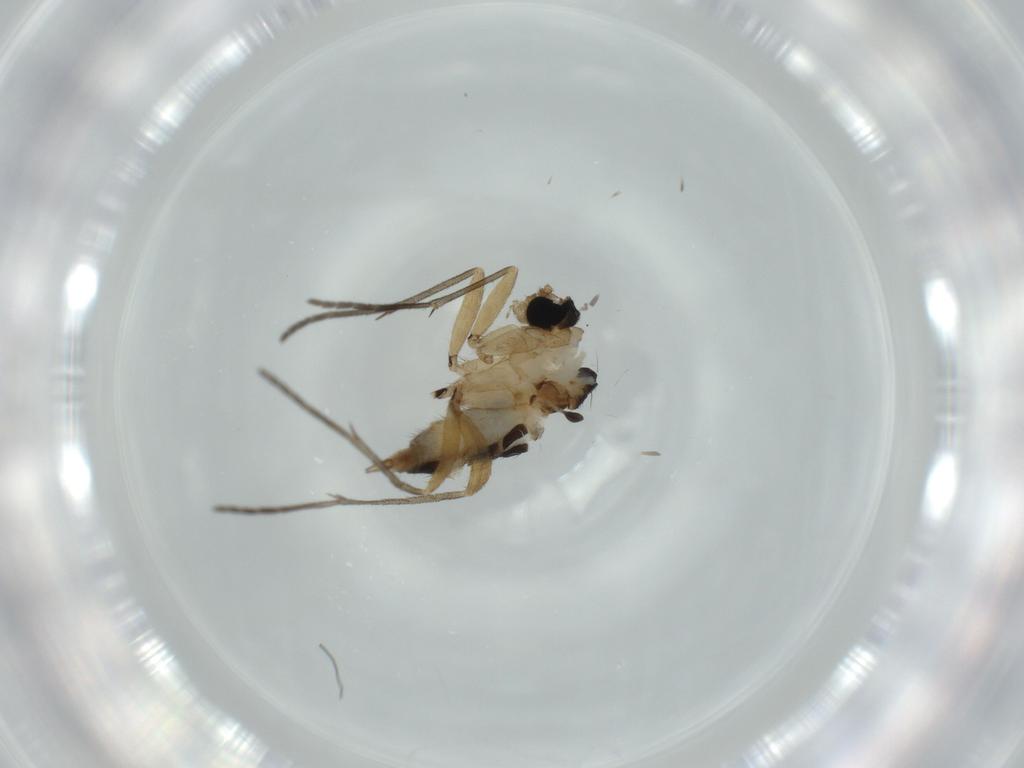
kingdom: Animalia
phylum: Arthropoda
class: Insecta
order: Diptera
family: Sciaridae
